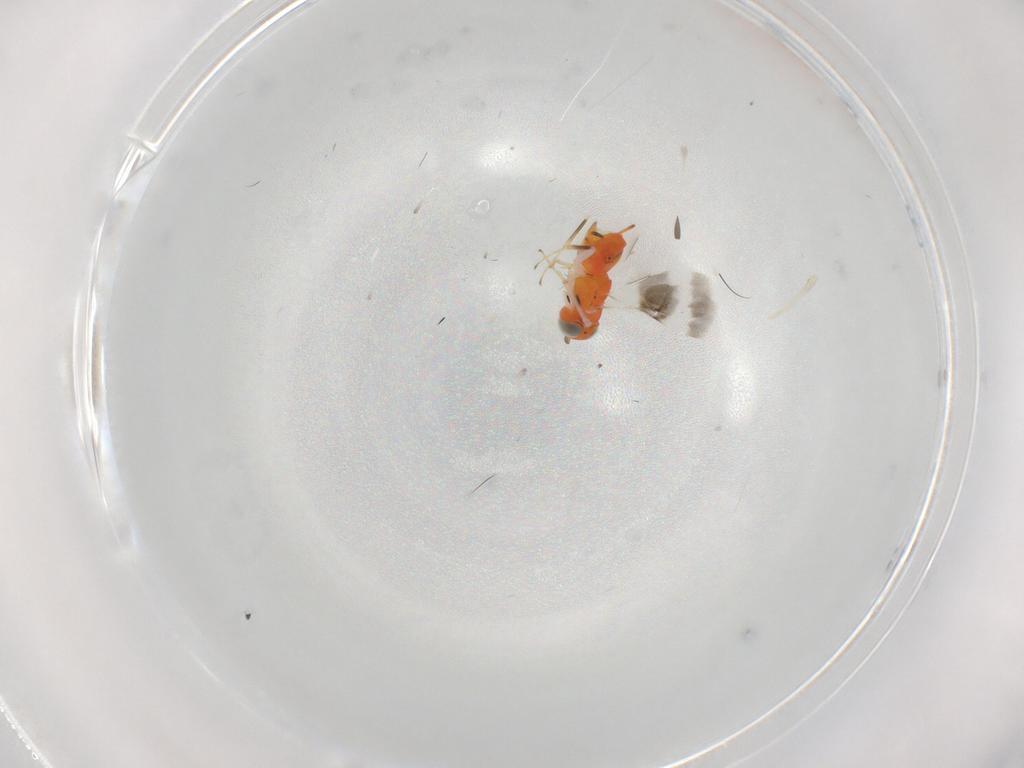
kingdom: Animalia
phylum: Arthropoda
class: Insecta
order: Hymenoptera
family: Encyrtidae
